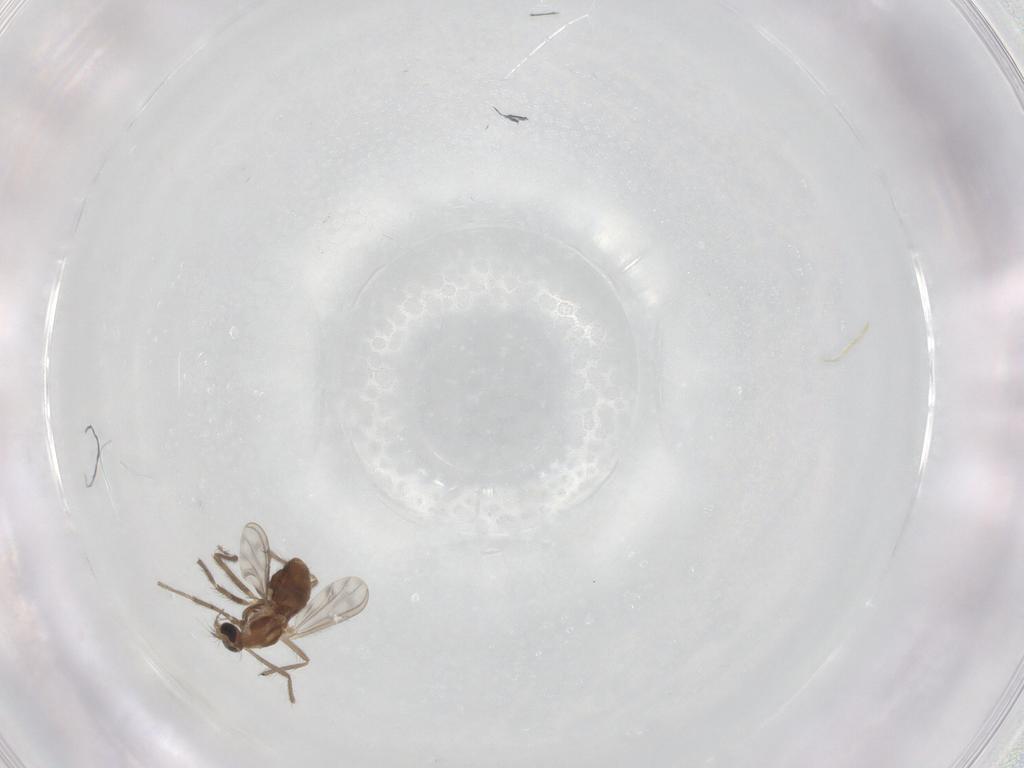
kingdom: Animalia
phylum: Arthropoda
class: Insecta
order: Diptera
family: Chironomidae
